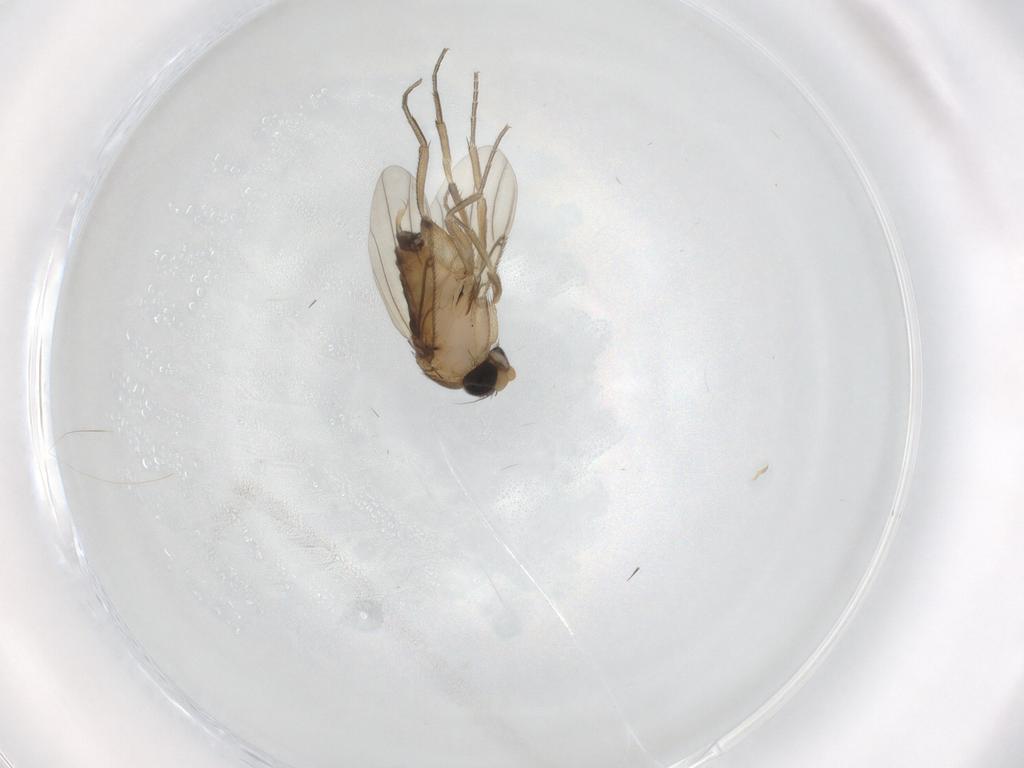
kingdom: Animalia
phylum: Arthropoda
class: Insecta
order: Diptera
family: Phoridae
